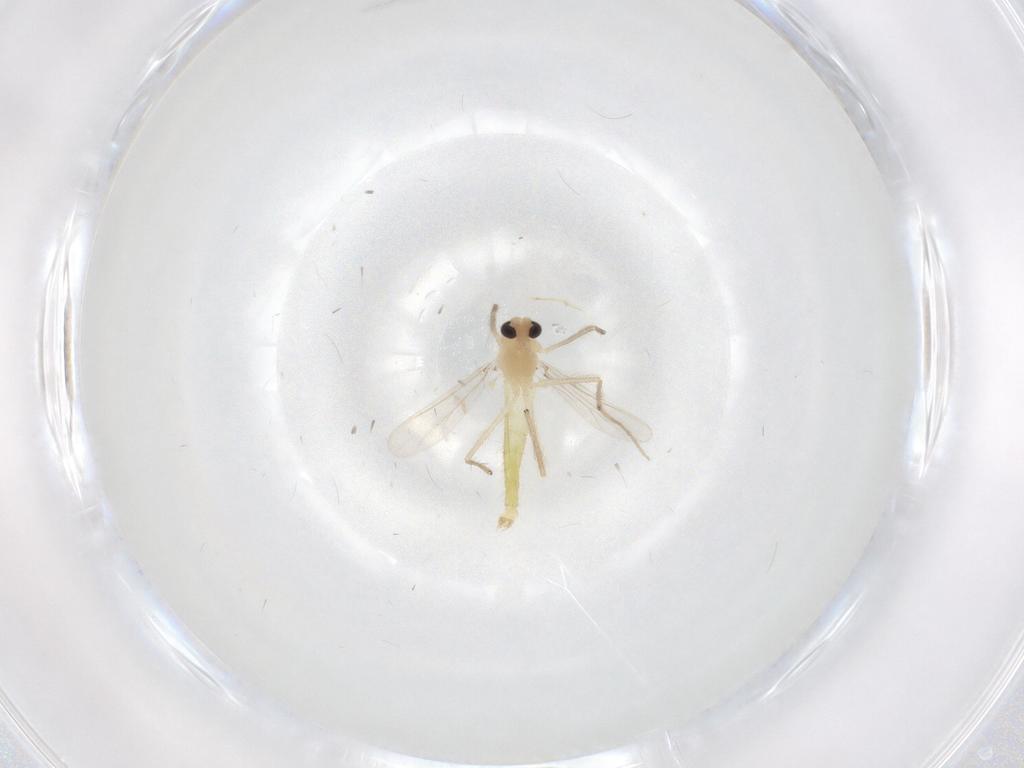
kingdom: Animalia
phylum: Arthropoda
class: Insecta
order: Diptera
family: Chironomidae
